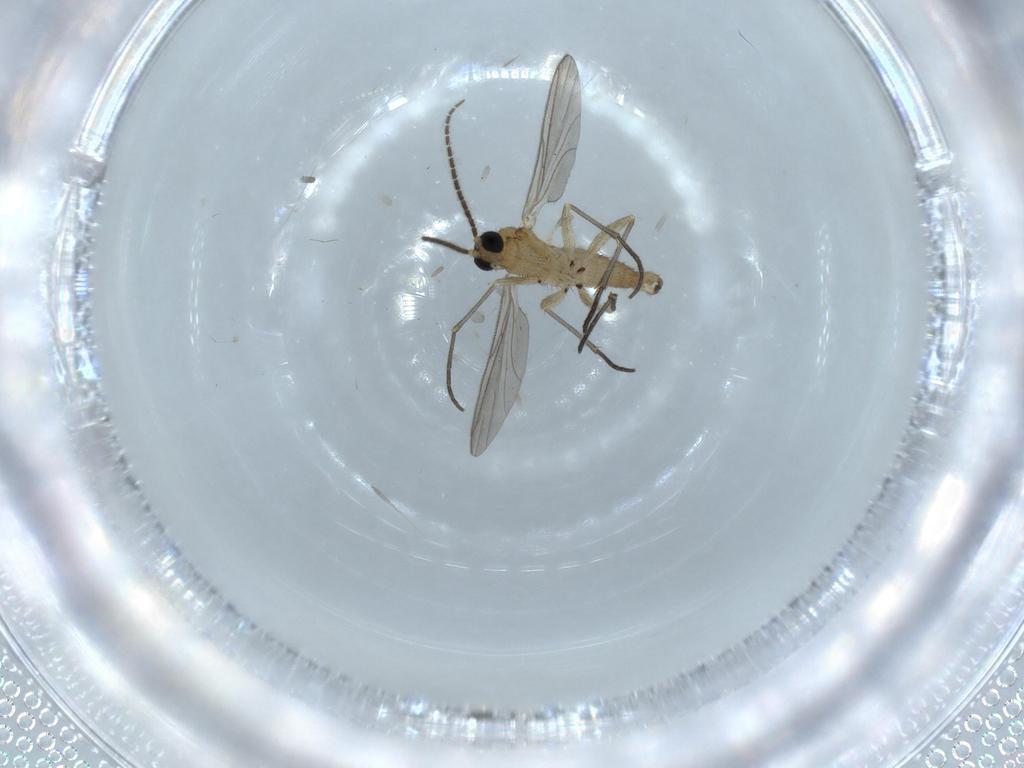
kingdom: Animalia
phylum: Arthropoda
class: Insecta
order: Diptera
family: Sciaridae
